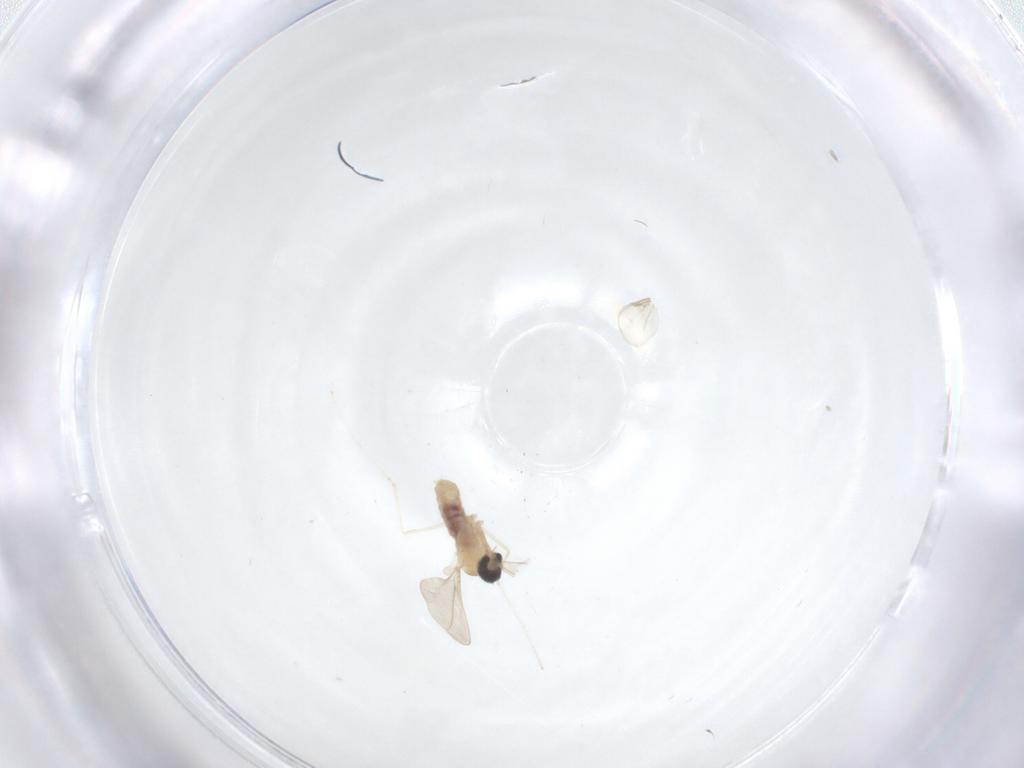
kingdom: Animalia
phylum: Arthropoda
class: Insecta
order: Diptera
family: Cecidomyiidae
